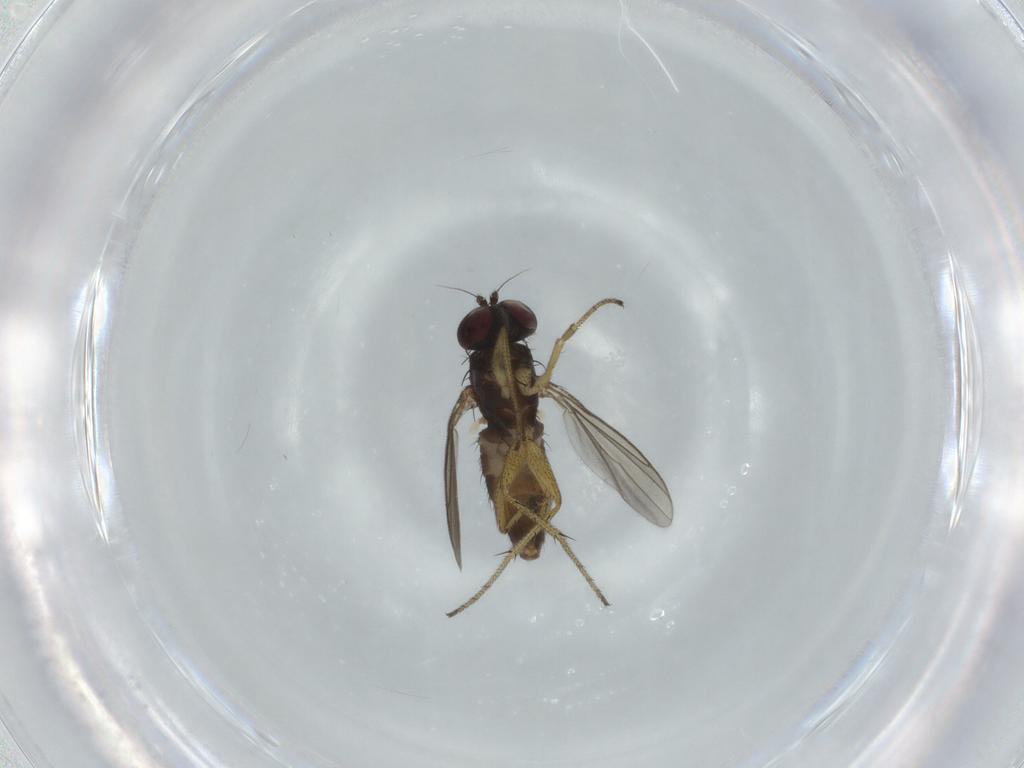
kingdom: Animalia
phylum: Arthropoda
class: Insecta
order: Diptera
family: Dolichopodidae
